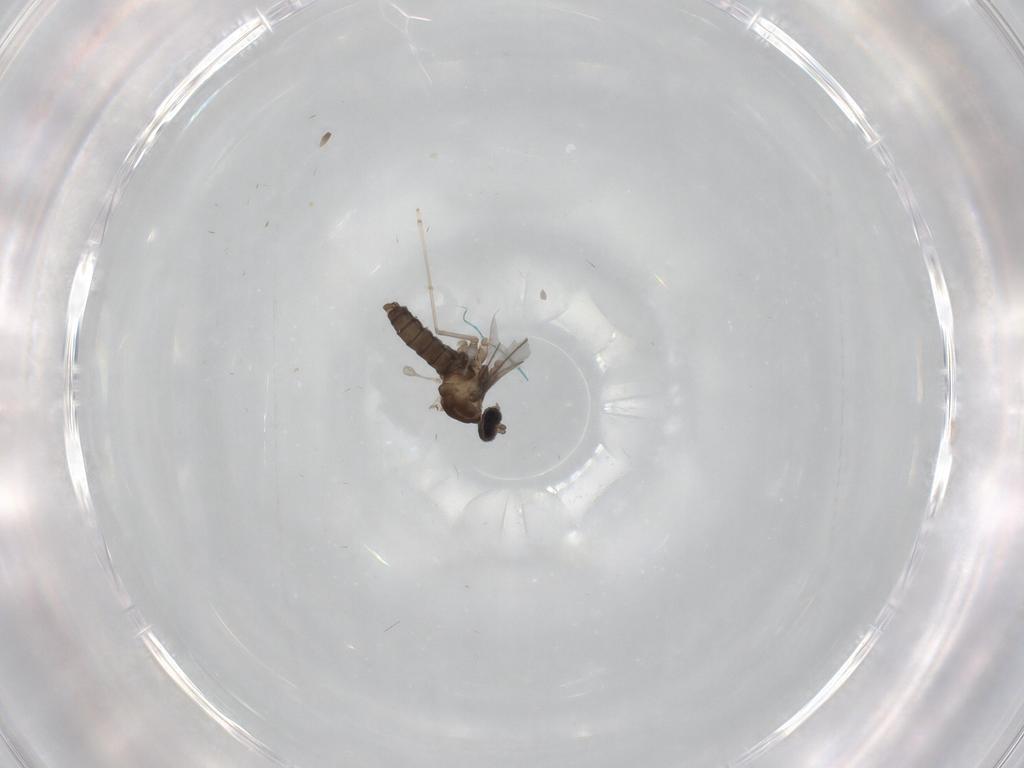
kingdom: Animalia
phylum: Arthropoda
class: Insecta
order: Diptera
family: Cecidomyiidae
